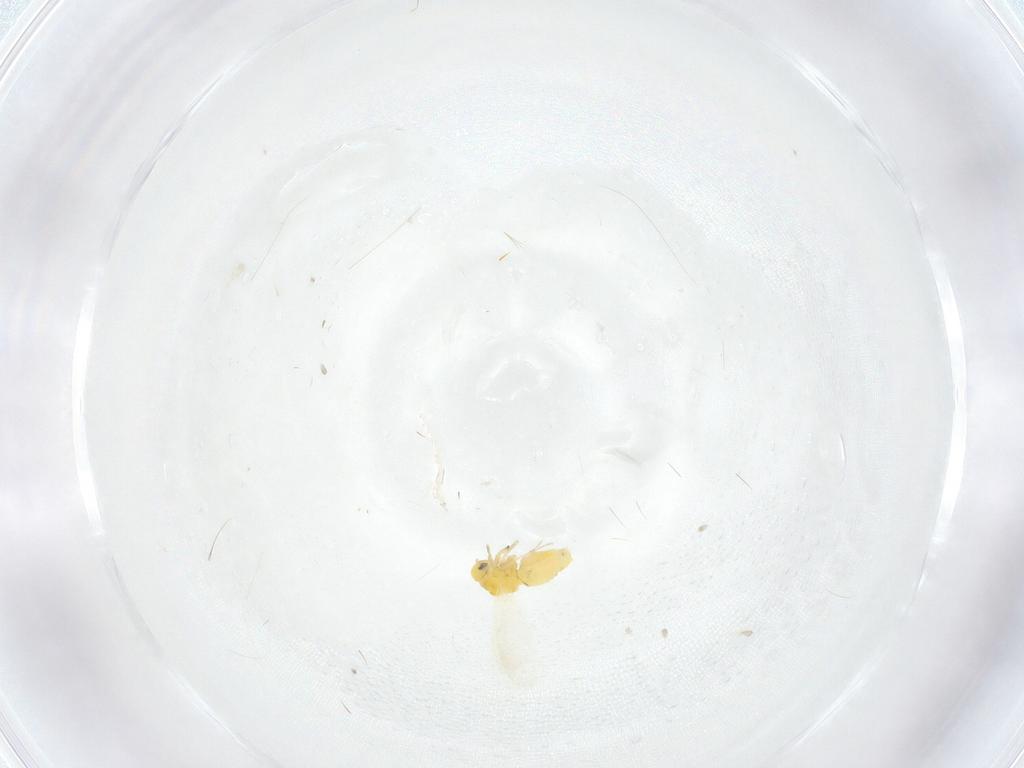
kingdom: Animalia
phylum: Arthropoda
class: Insecta
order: Hemiptera
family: Aleyrodidae
